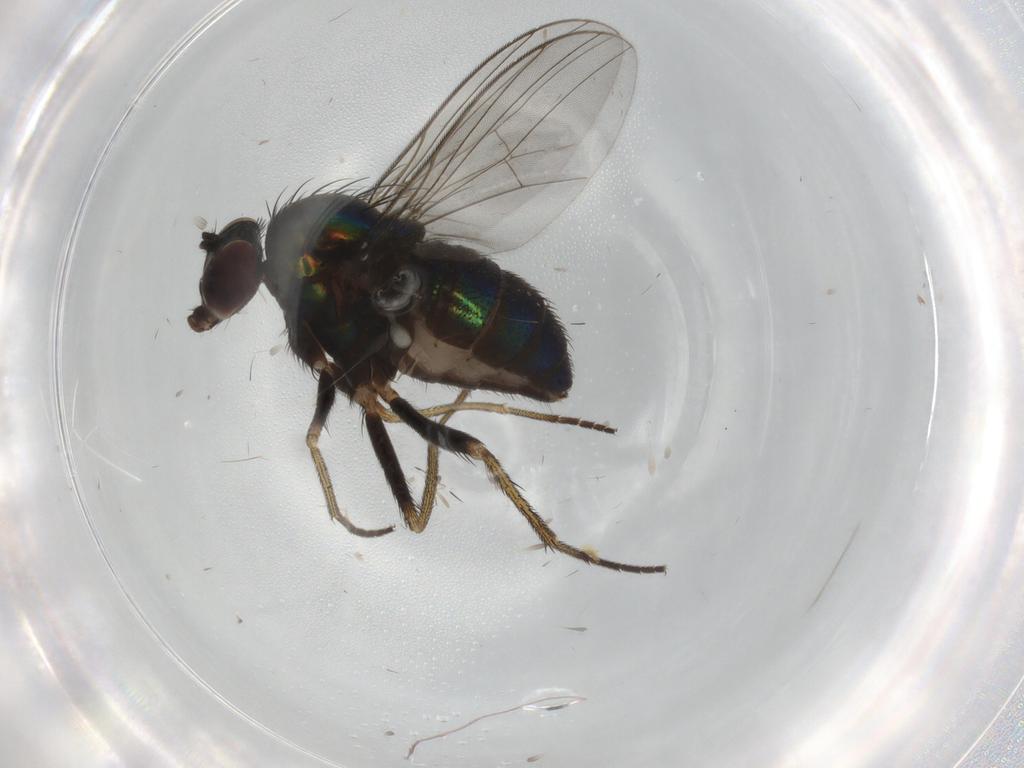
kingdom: Animalia
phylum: Arthropoda
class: Insecta
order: Diptera
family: Dolichopodidae
